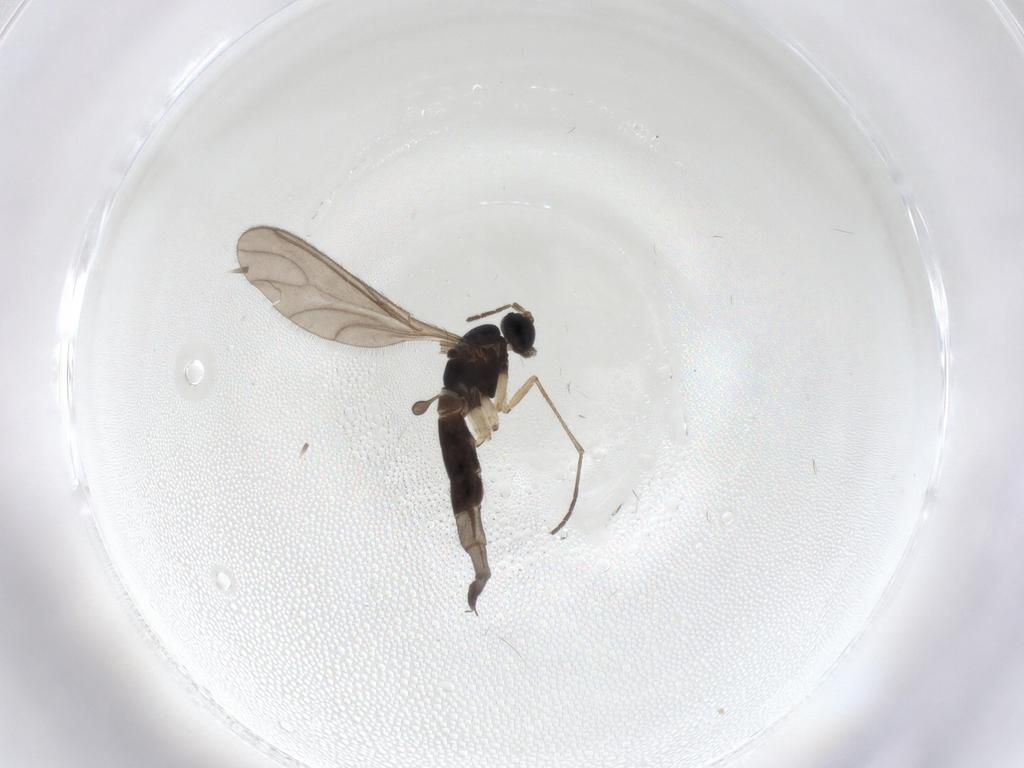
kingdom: Animalia
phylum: Arthropoda
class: Insecta
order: Diptera
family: Sciaridae
